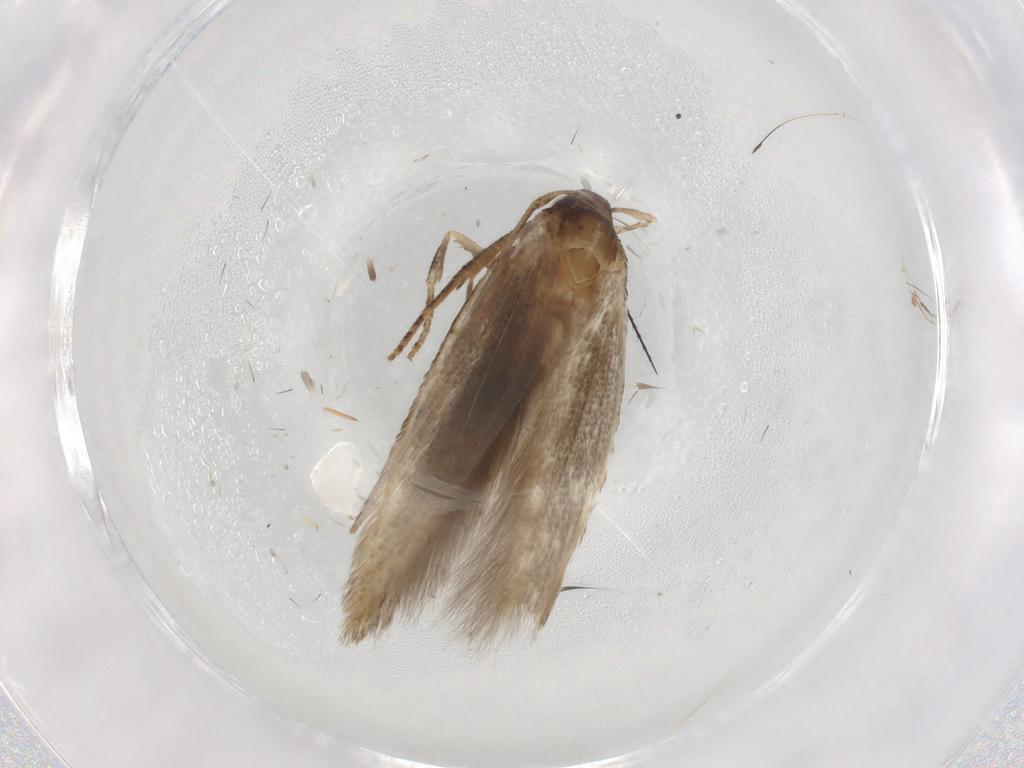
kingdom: Animalia
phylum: Arthropoda
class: Insecta
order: Lepidoptera
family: Cosmopterigidae
